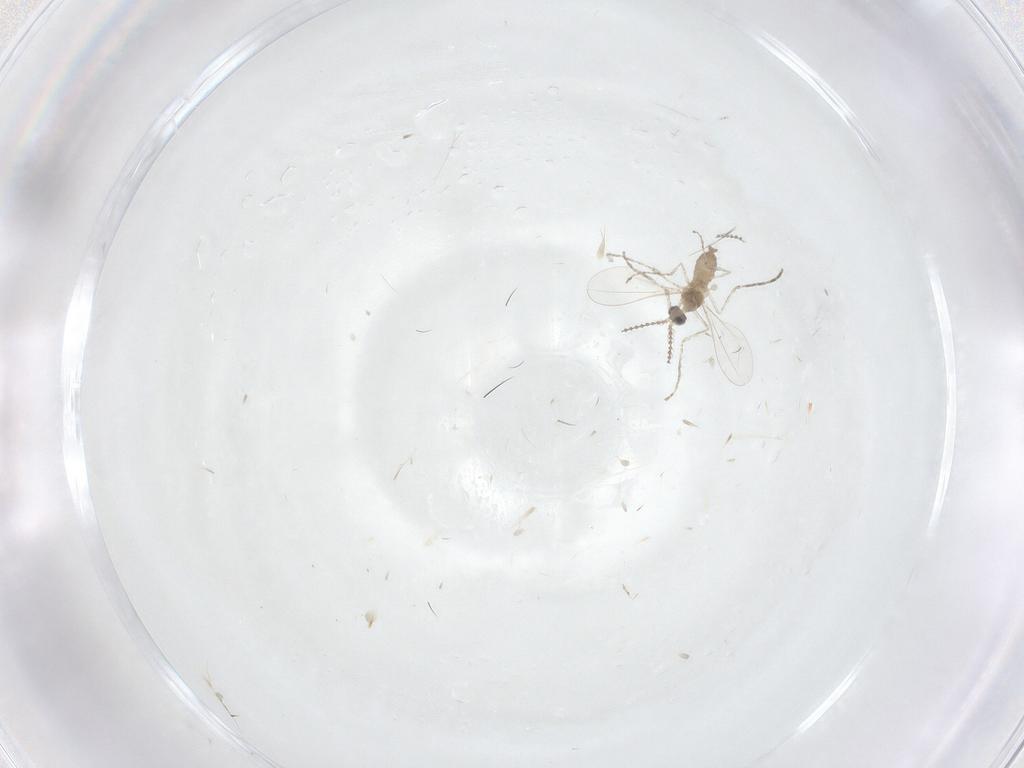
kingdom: Animalia
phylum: Arthropoda
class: Insecta
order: Diptera
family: Cecidomyiidae
